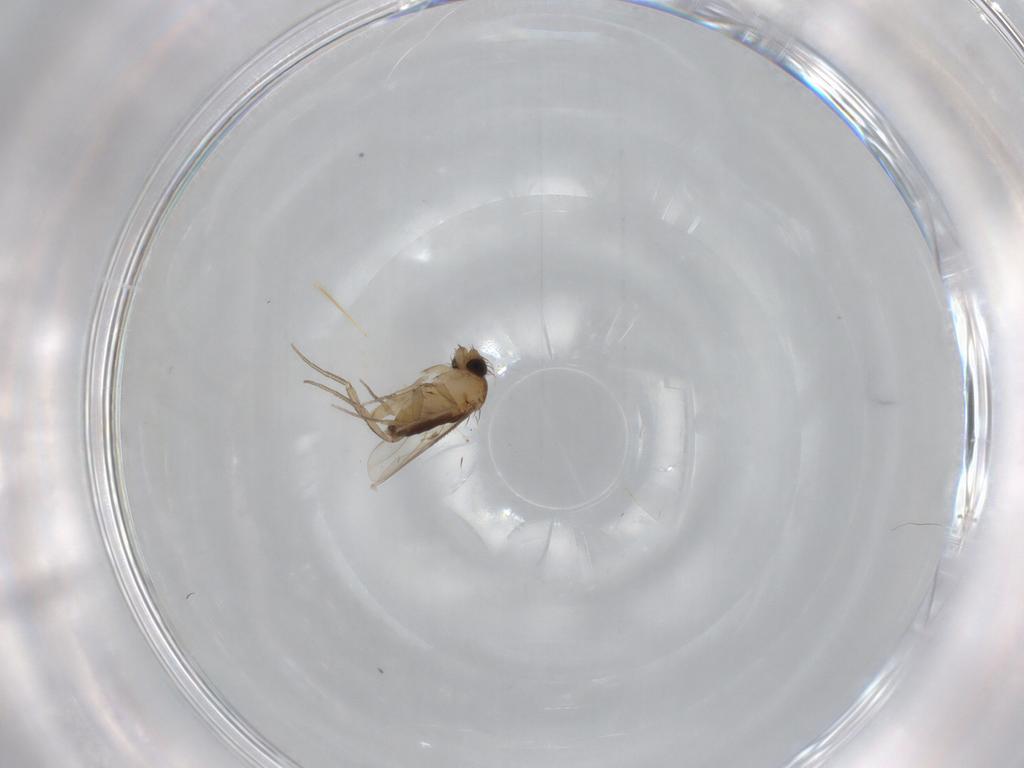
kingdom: Animalia
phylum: Arthropoda
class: Insecta
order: Diptera
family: Phoridae
